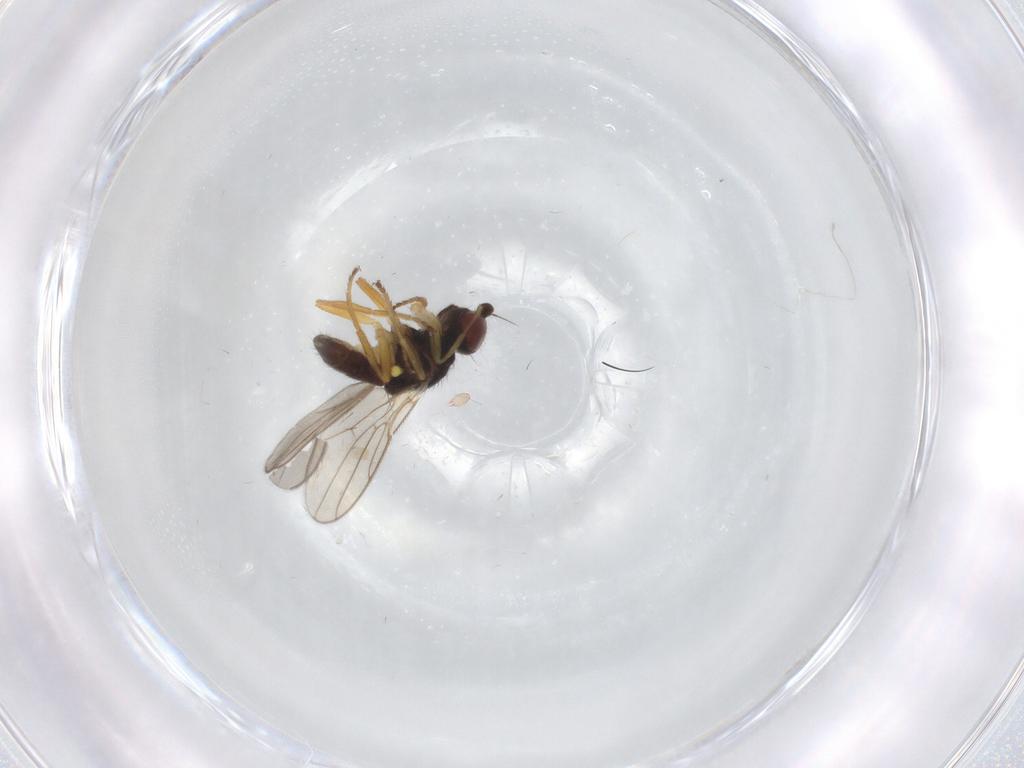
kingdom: Animalia
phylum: Arthropoda
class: Insecta
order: Diptera
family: Chloropidae
